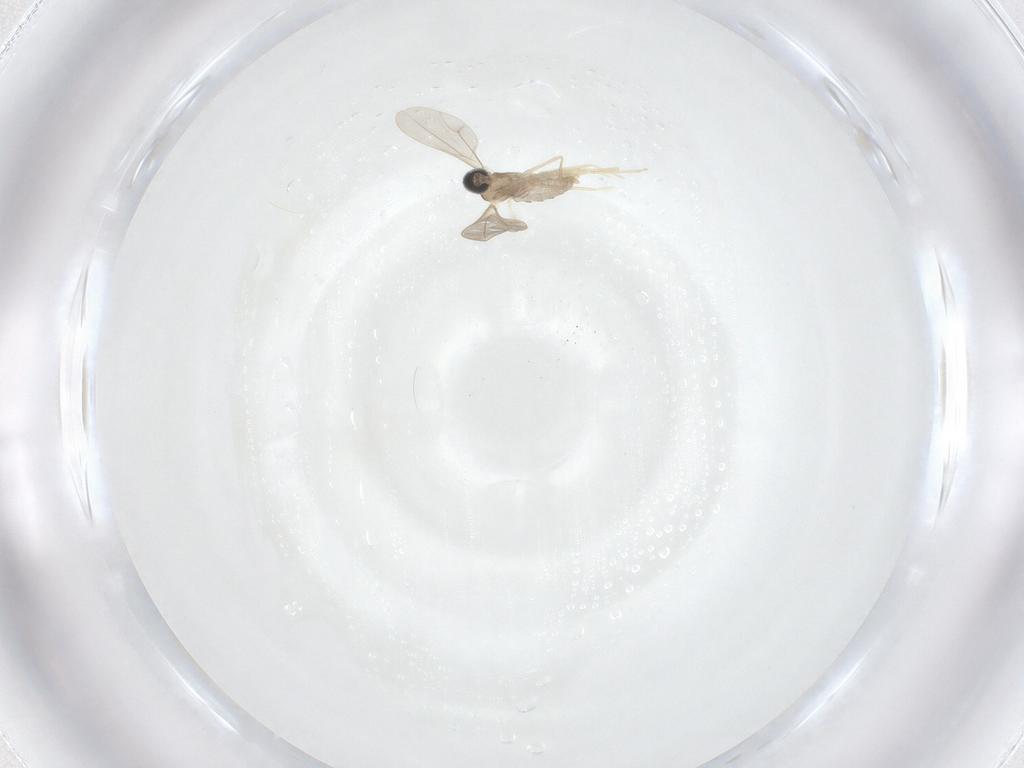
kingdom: Animalia
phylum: Arthropoda
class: Insecta
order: Diptera
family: Cecidomyiidae
